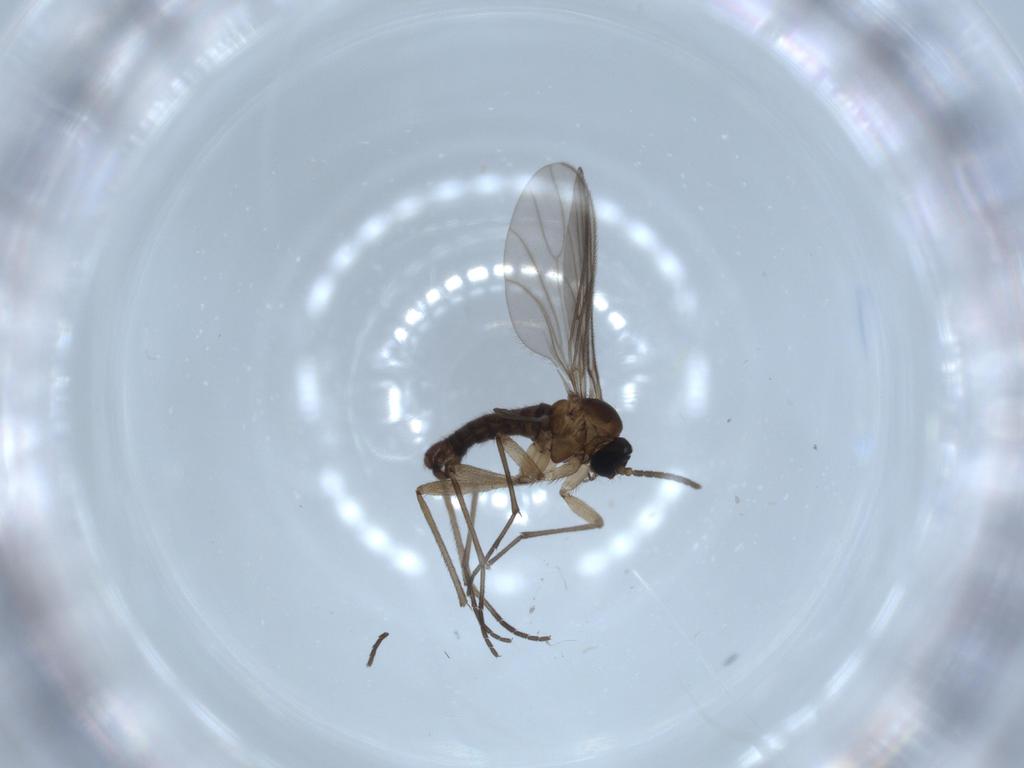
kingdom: Animalia
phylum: Arthropoda
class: Insecta
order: Diptera
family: Sciaridae
